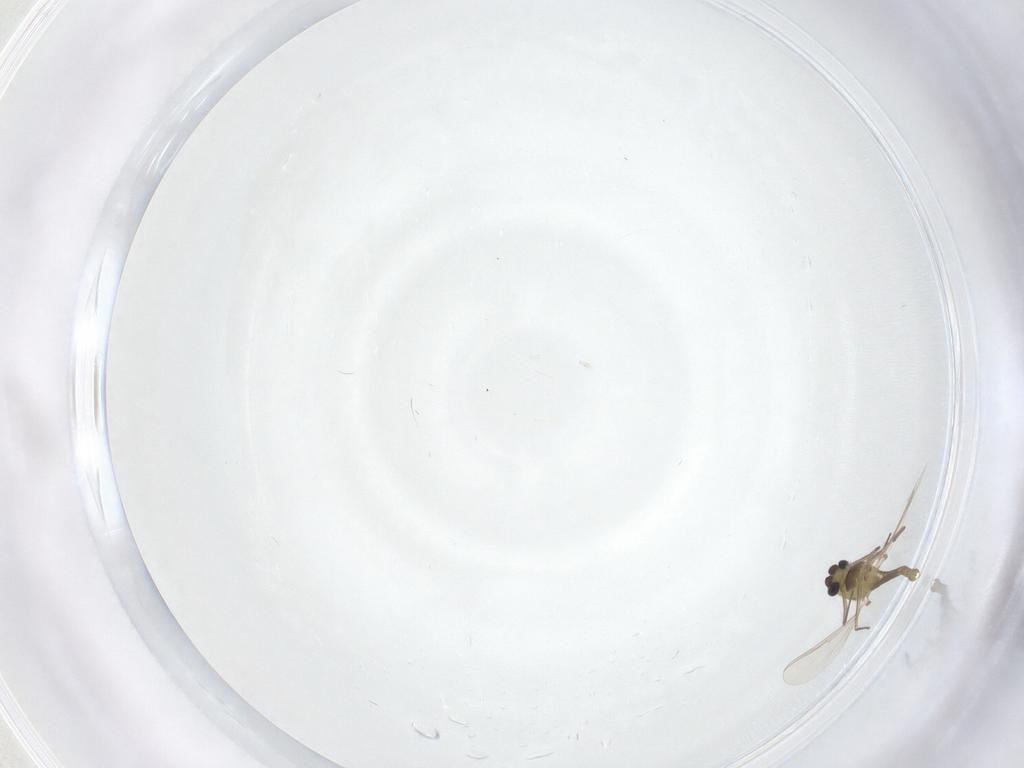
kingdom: Animalia
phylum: Arthropoda
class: Insecta
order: Diptera
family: Chironomidae
